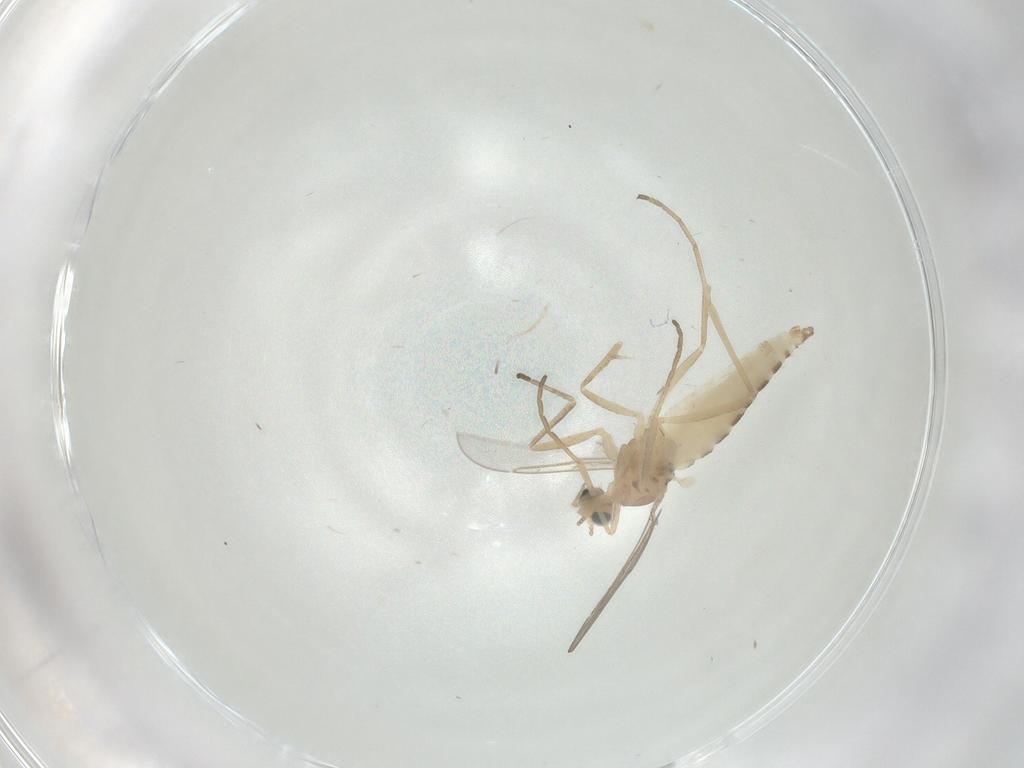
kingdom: Animalia
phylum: Arthropoda
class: Insecta
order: Diptera
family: Cecidomyiidae
